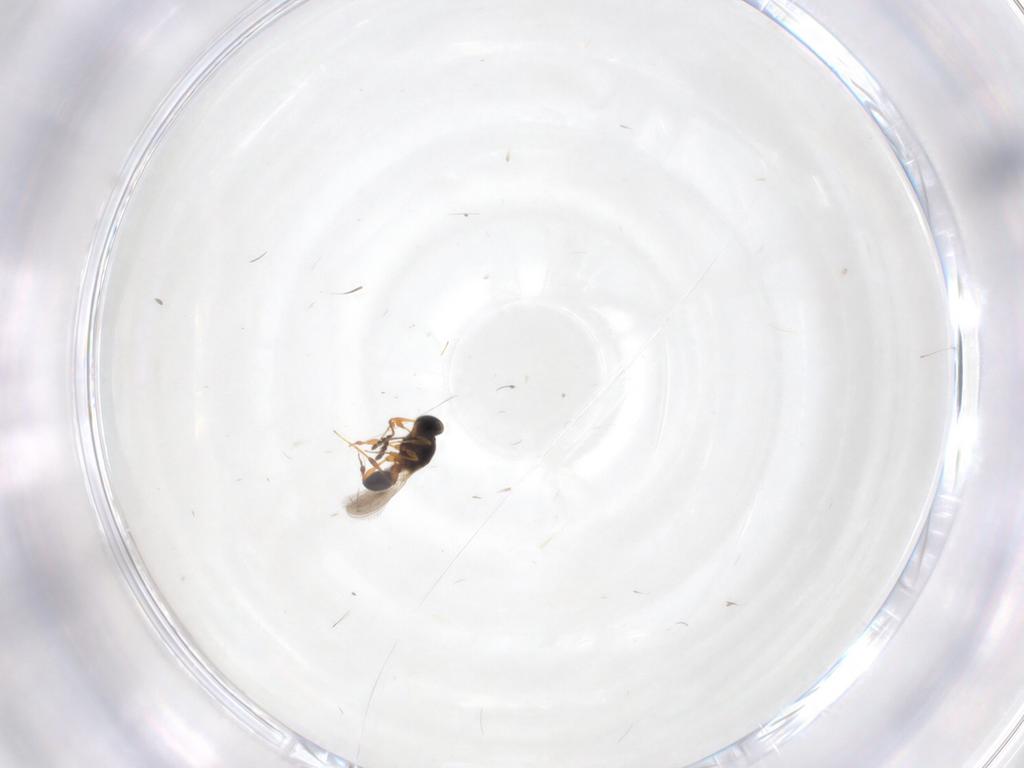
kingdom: Animalia
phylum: Arthropoda
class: Insecta
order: Hymenoptera
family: Platygastridae
